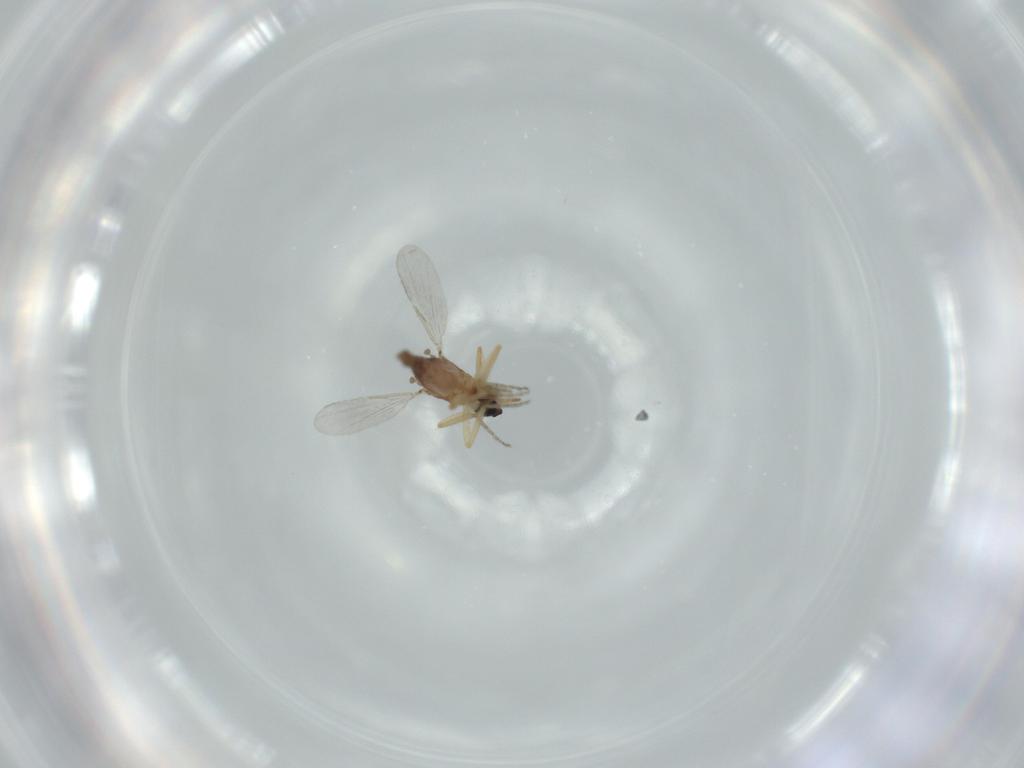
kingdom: Animalia
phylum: Arthropoda
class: Insecta
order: Diptera
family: Ceratopogonidae
